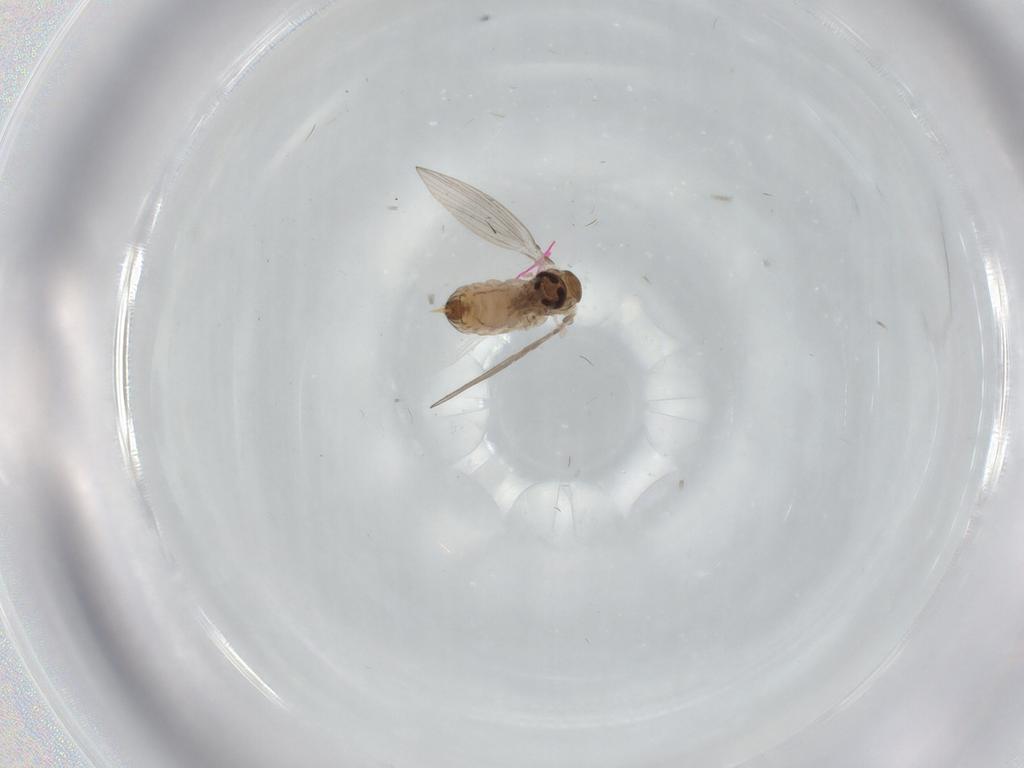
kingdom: Animalia
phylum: Arthropoda
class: Insecta
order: Diptera
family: Psychodidae
